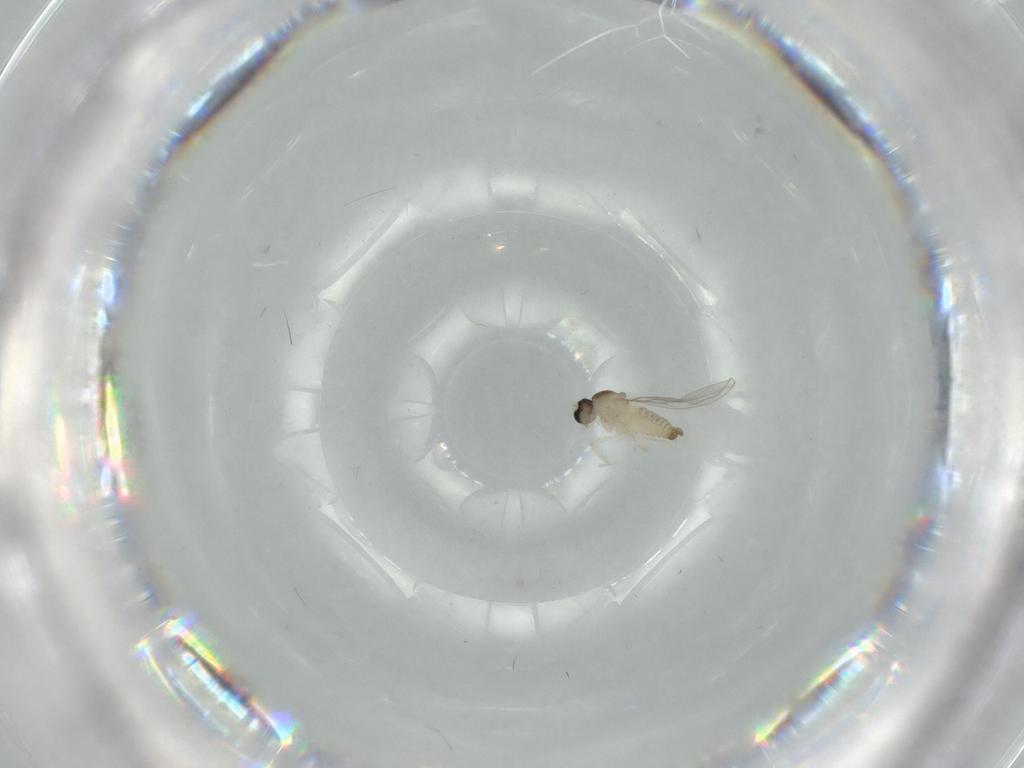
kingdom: Animalia
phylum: Arthropoda
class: Insecta
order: Diptera
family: Cecidomyiidae
